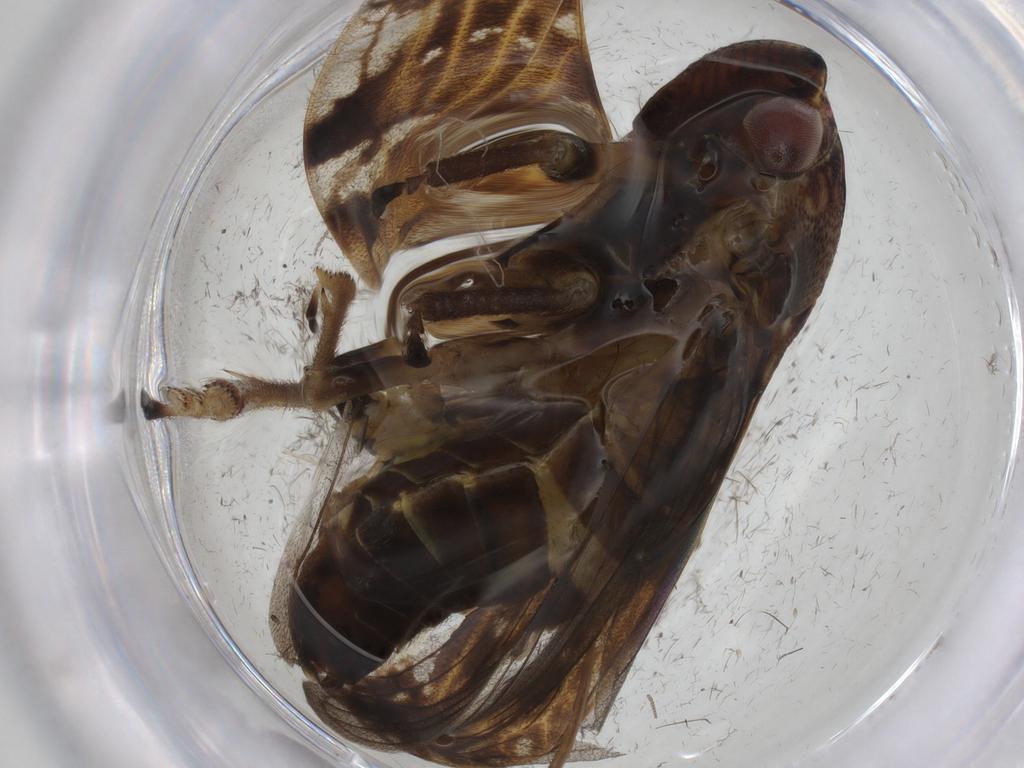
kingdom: Animalia
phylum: Arthropoda
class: Insecta
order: Hemiptera
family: Aphrophoridae
